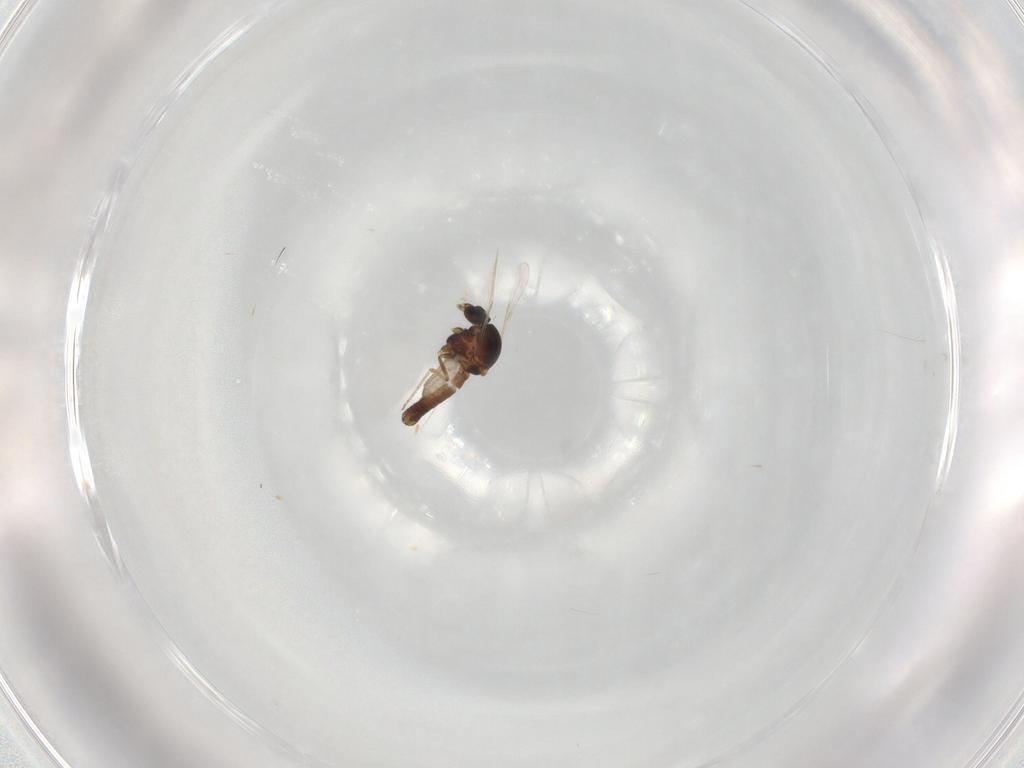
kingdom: Animalia
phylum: Arthropoda
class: Insecta
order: Diptera
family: Ceratopogonidae
